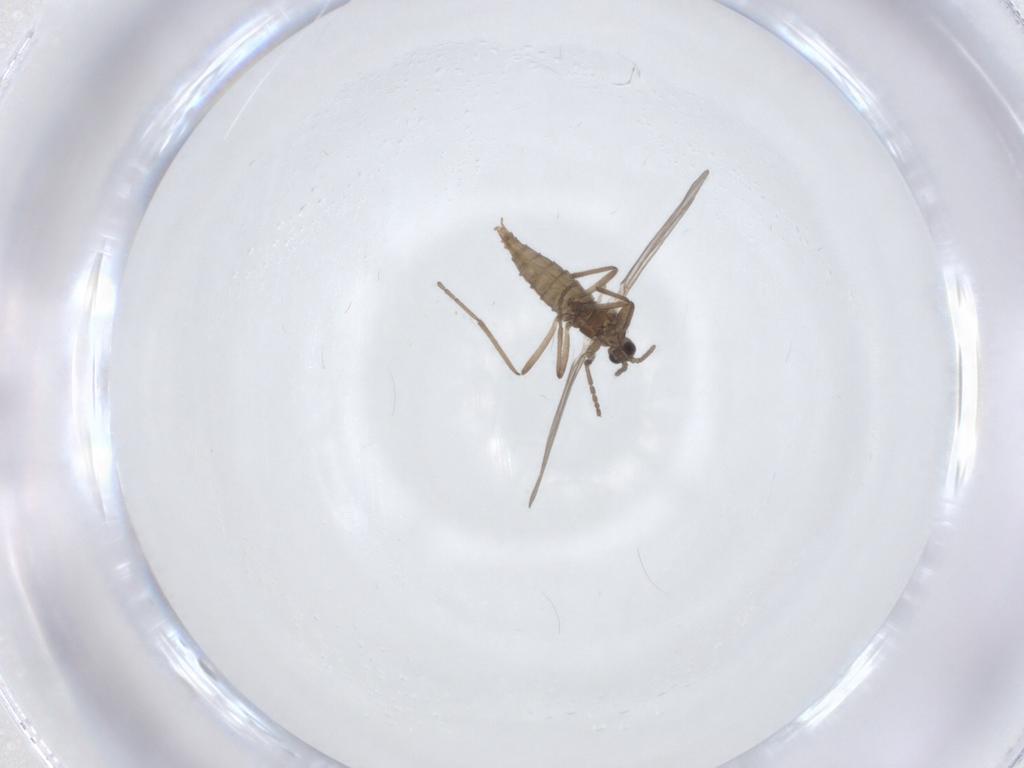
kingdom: Animalia
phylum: Arthropoda
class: Insecta
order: Diptera
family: Cecidomyiidae
